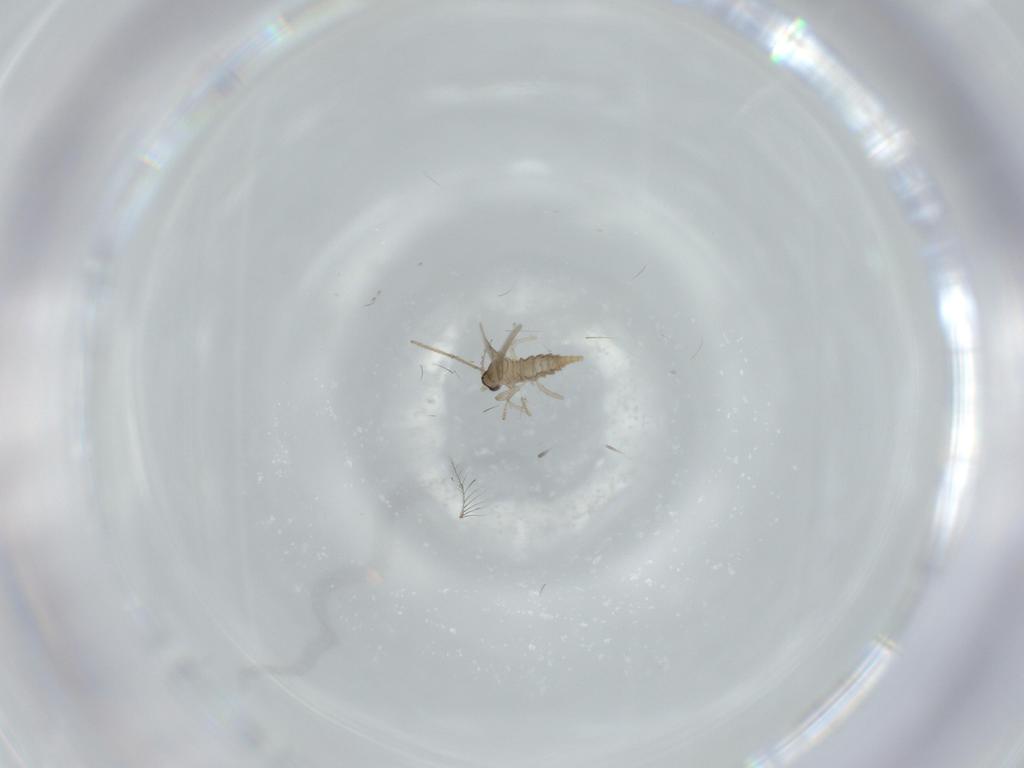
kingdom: Animalia
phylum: Arthropoda
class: Insecta
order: Diptera
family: Cecidomyiidae
